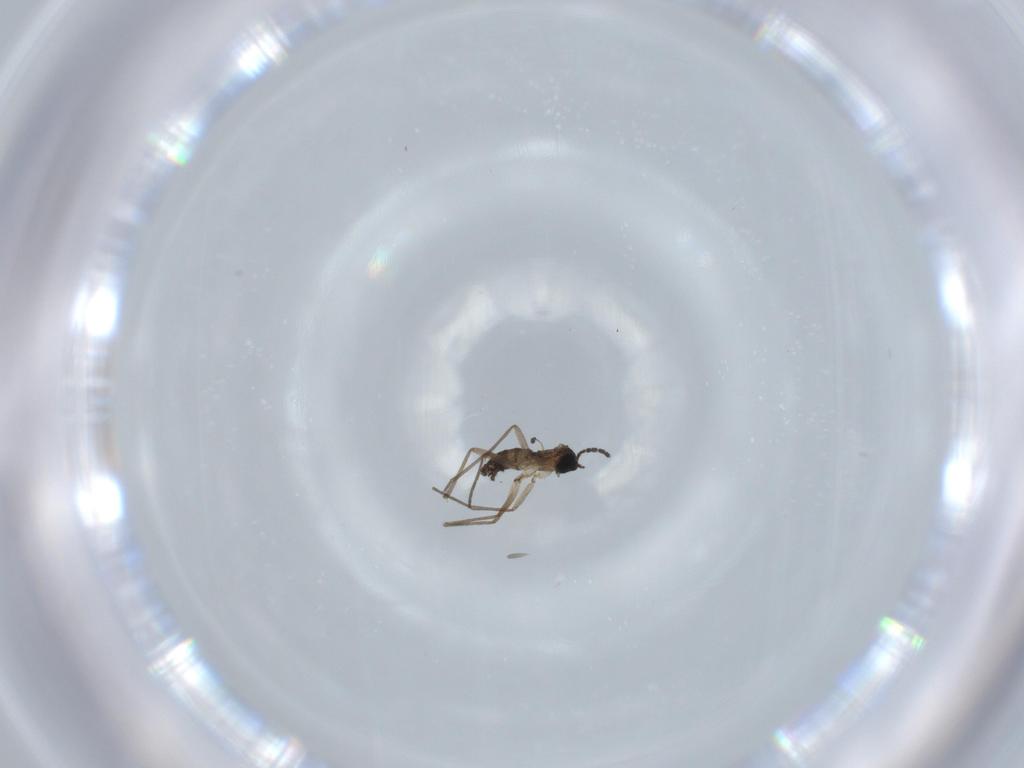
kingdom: Animalia
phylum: Arthropoda
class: Insecta
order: Diptera
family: Sciaridae
